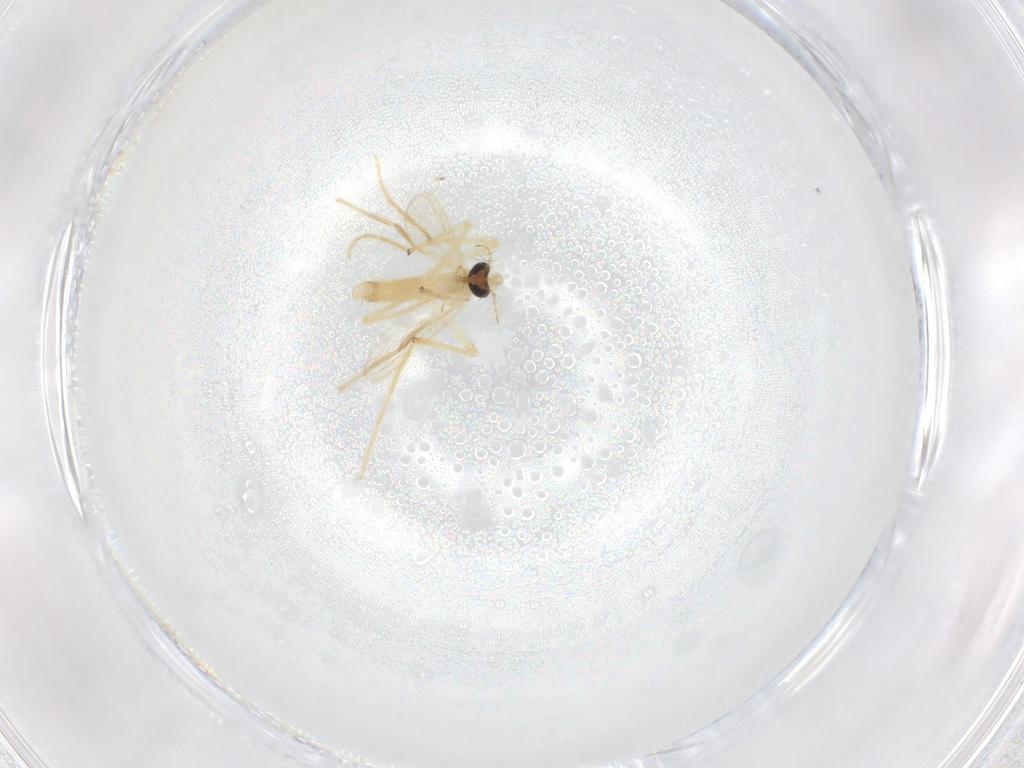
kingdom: Animalia
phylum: Arthropoda
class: Insecta
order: Diptera
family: Chironomidae
